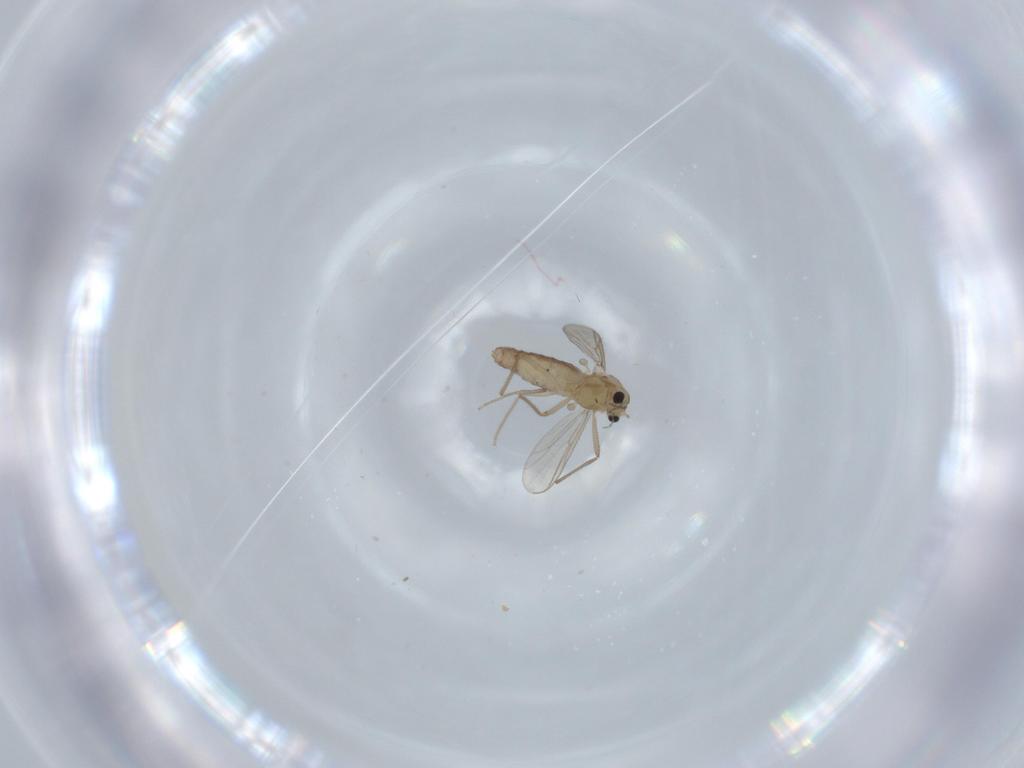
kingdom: Animalia
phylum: Arthropoda
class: Insecta
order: Diptera
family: Chironomidae
